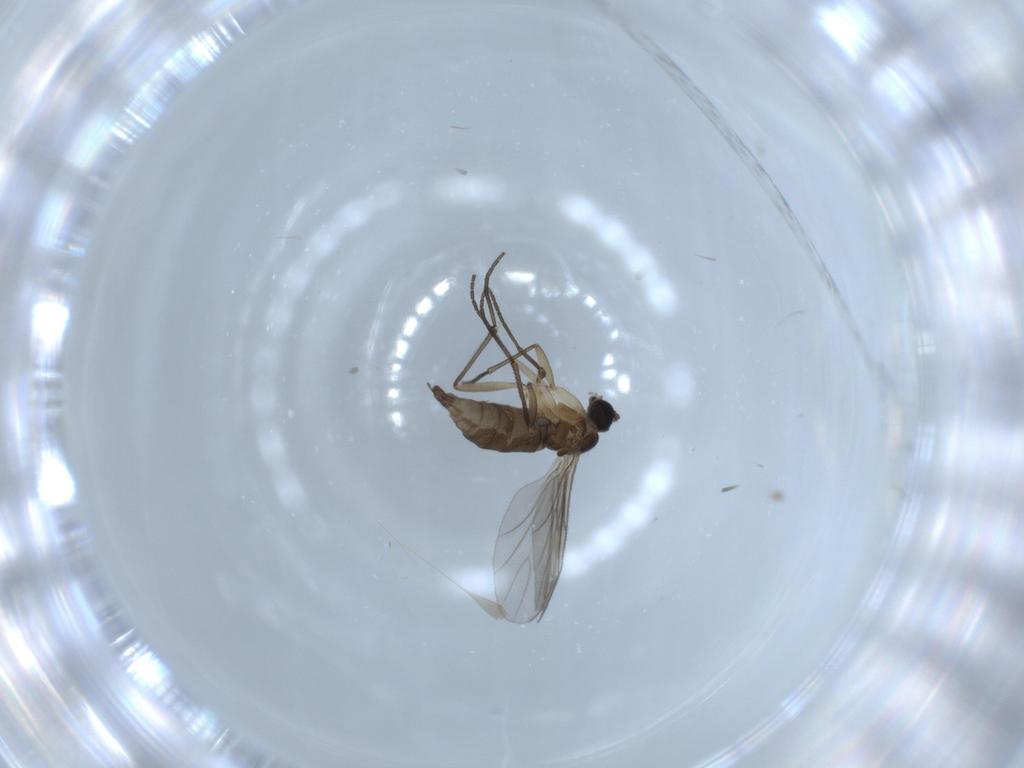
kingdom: Animalia
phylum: Arthropoda
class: Insecta
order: Diptera
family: Sciaridae
